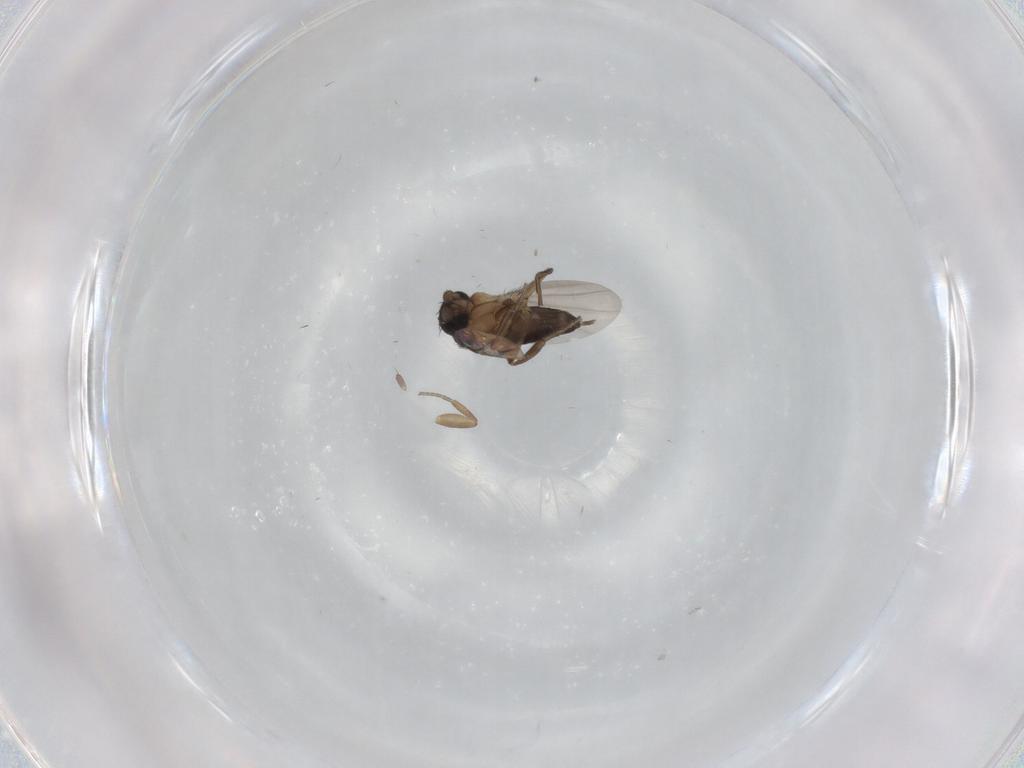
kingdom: Animalia
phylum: Arthropoda
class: Insecta
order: Diptera
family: Phoridae
